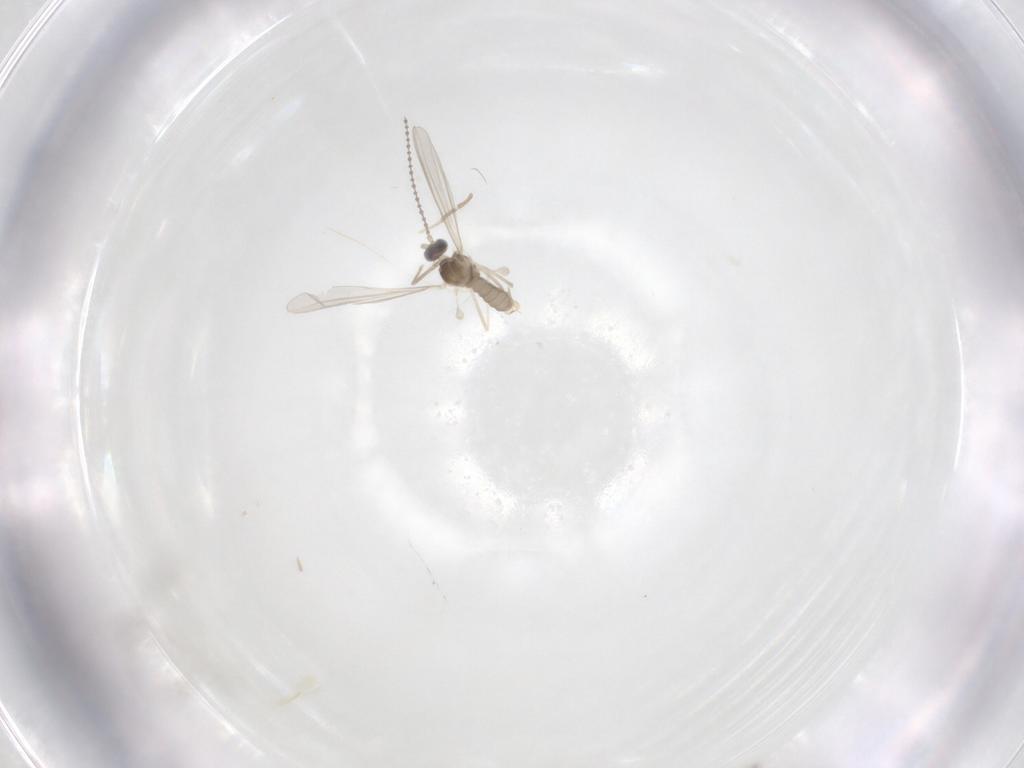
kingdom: Animalia
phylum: Arthropoda
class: Insecta
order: Diptera
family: Cecidomyiidae
